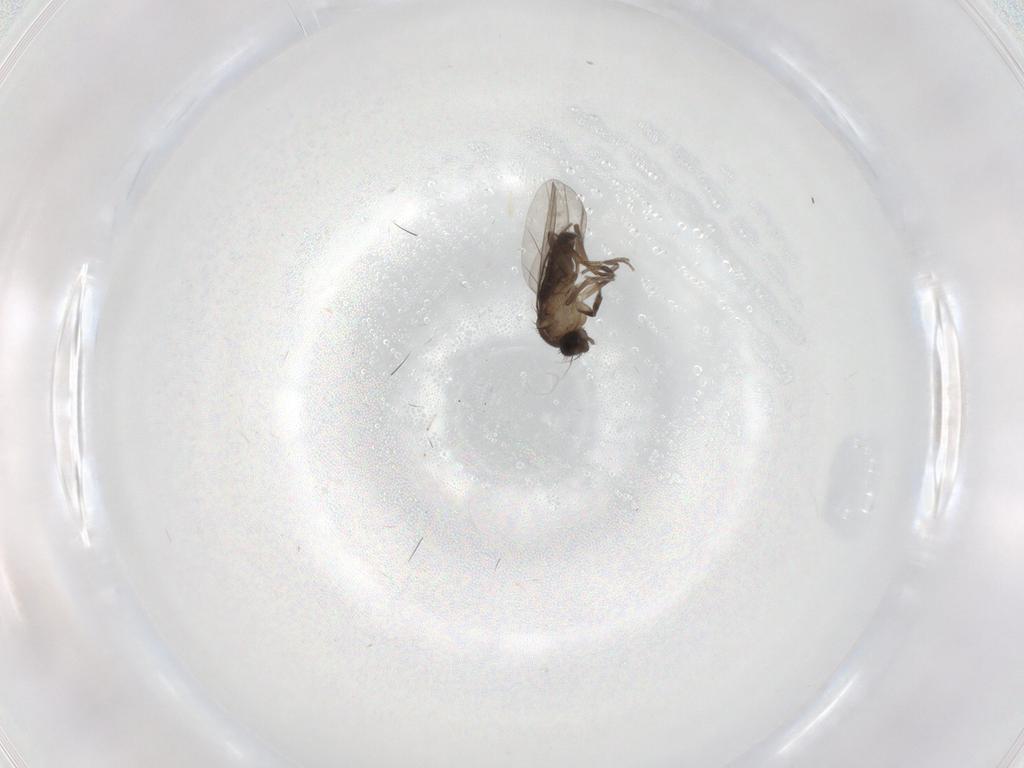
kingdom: Animalia
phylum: Arthropoda
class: Insecta
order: Diptera
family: Phoridae
